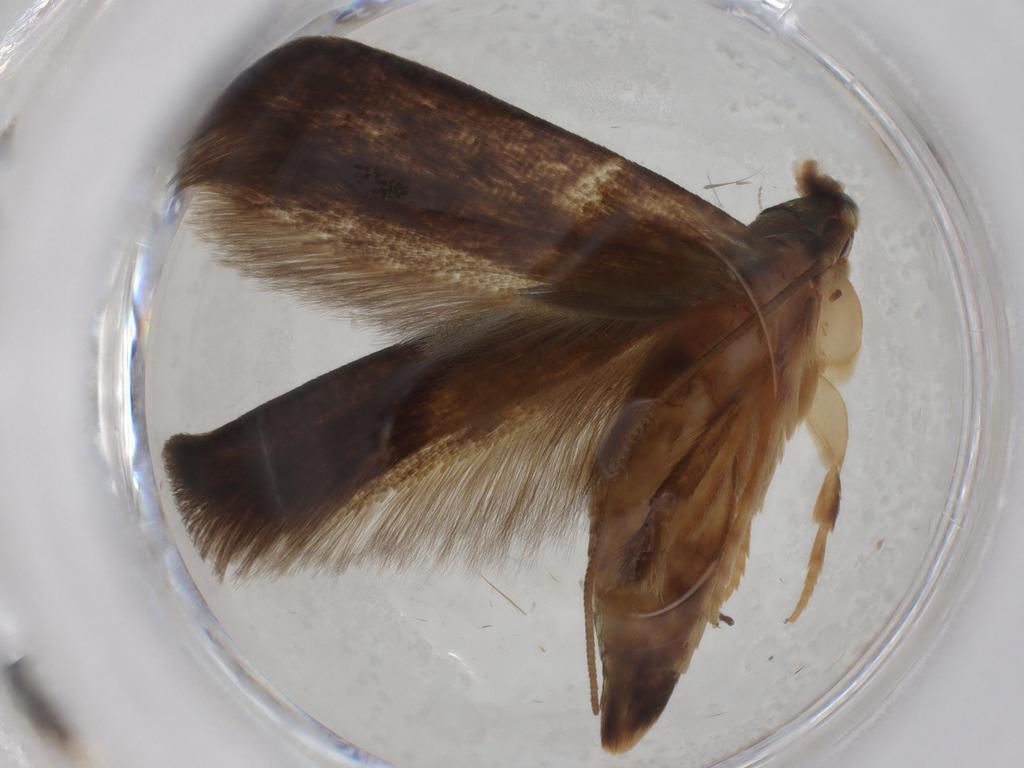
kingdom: Animalia
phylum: Arthropoda
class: Insecta
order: Lepidoptera
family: Tineidae
